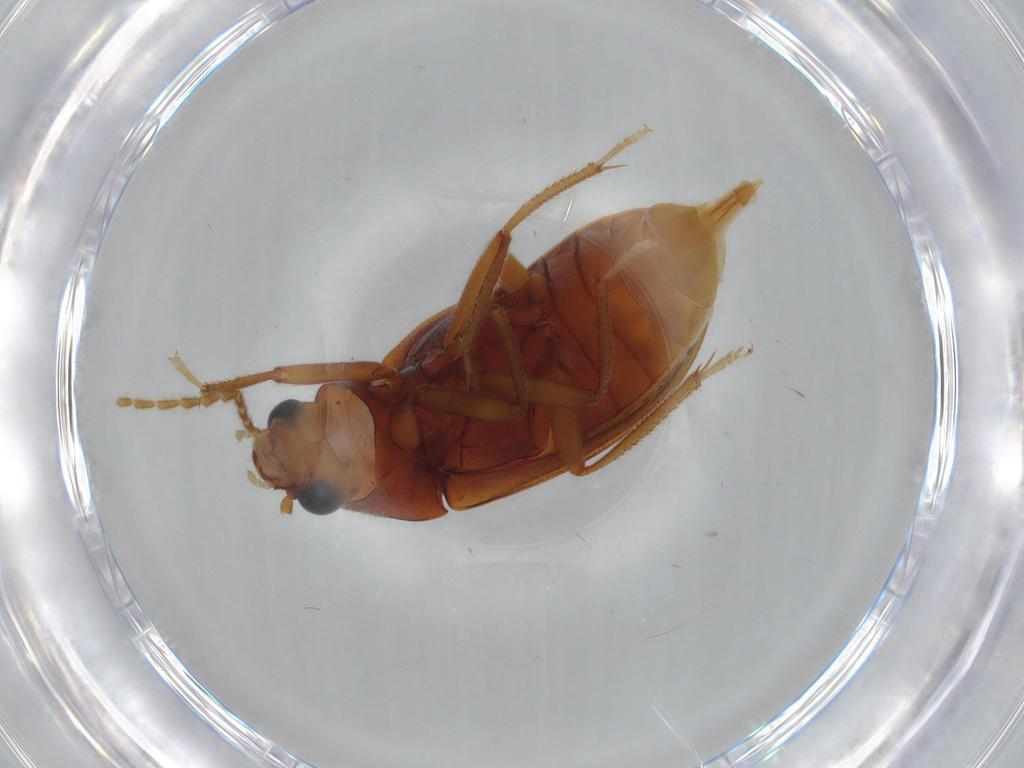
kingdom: Animalia
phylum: Arthropoda
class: Insecta
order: Coleoptera
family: Ptilodactylidae
